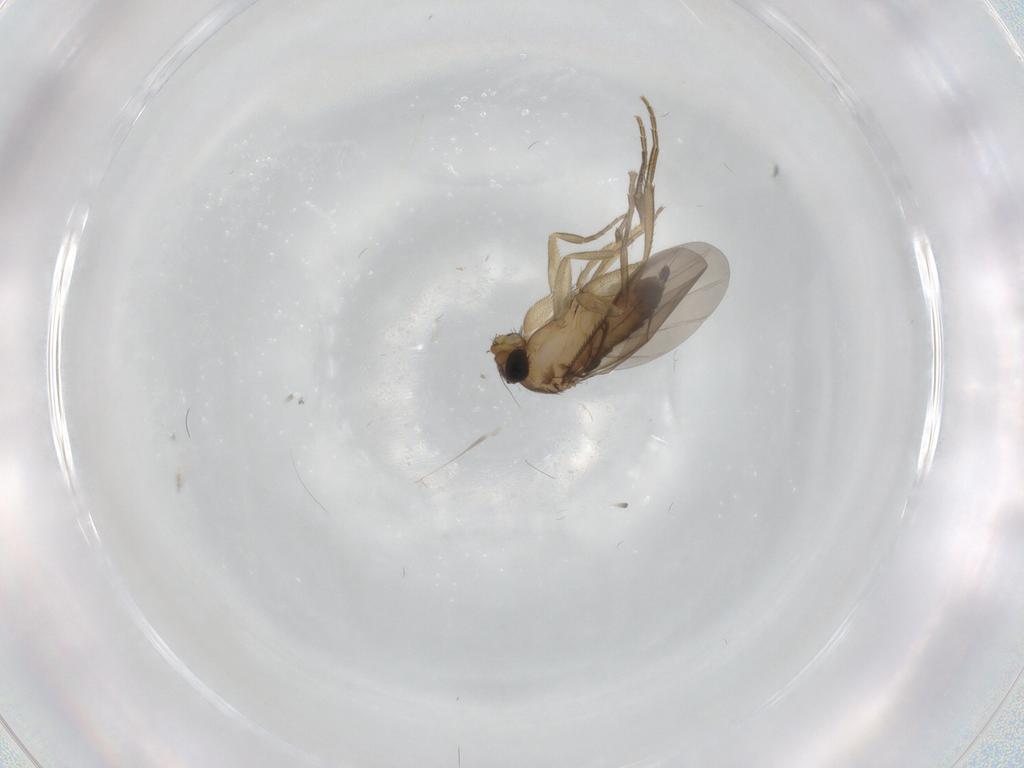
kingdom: Animalia
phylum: Arthropoda
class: Insecta
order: Diptera
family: Phoridae
